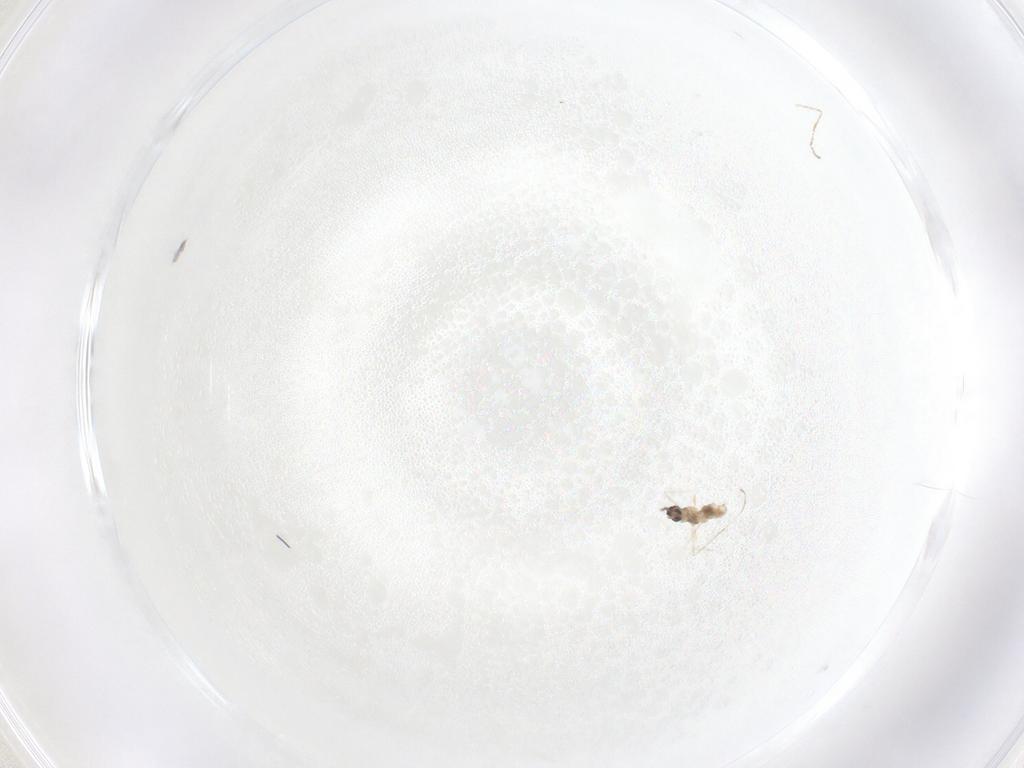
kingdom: Animalia
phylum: Arthropoda
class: Insecta
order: Diptera
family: Cecidomyiidae
